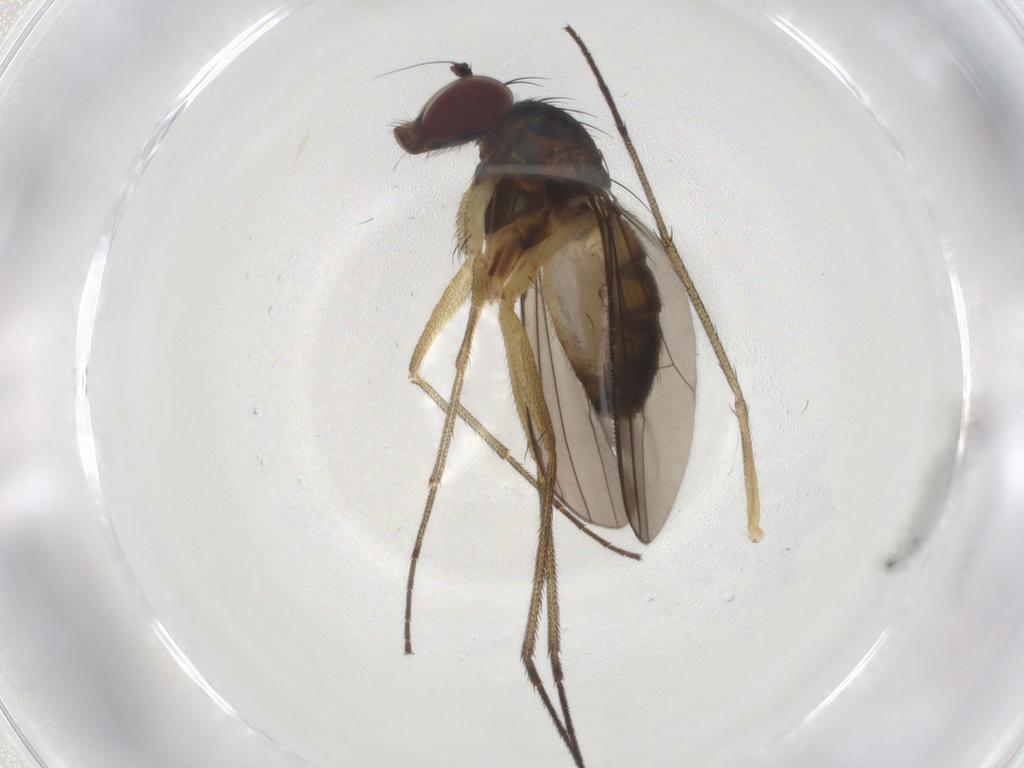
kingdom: Animalia
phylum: Arthropoda
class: Insecta
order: Diptera
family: Dolichopodidae
